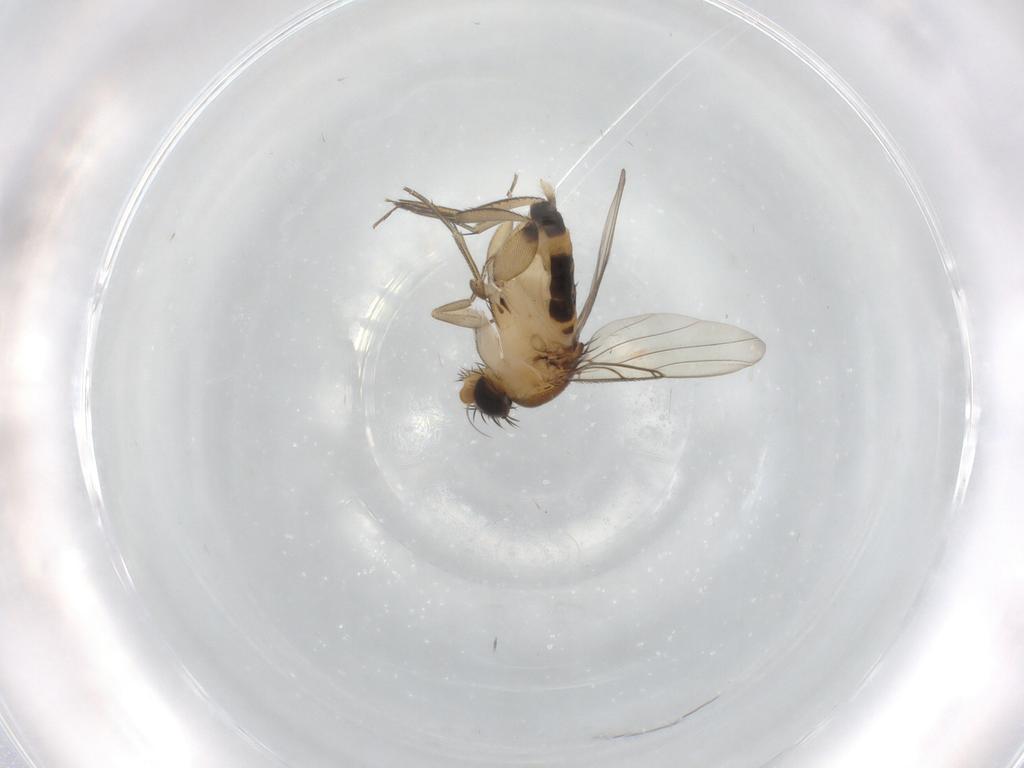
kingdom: Animalia
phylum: Arthropoda
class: Insecta
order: Diptera
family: Phoridae
